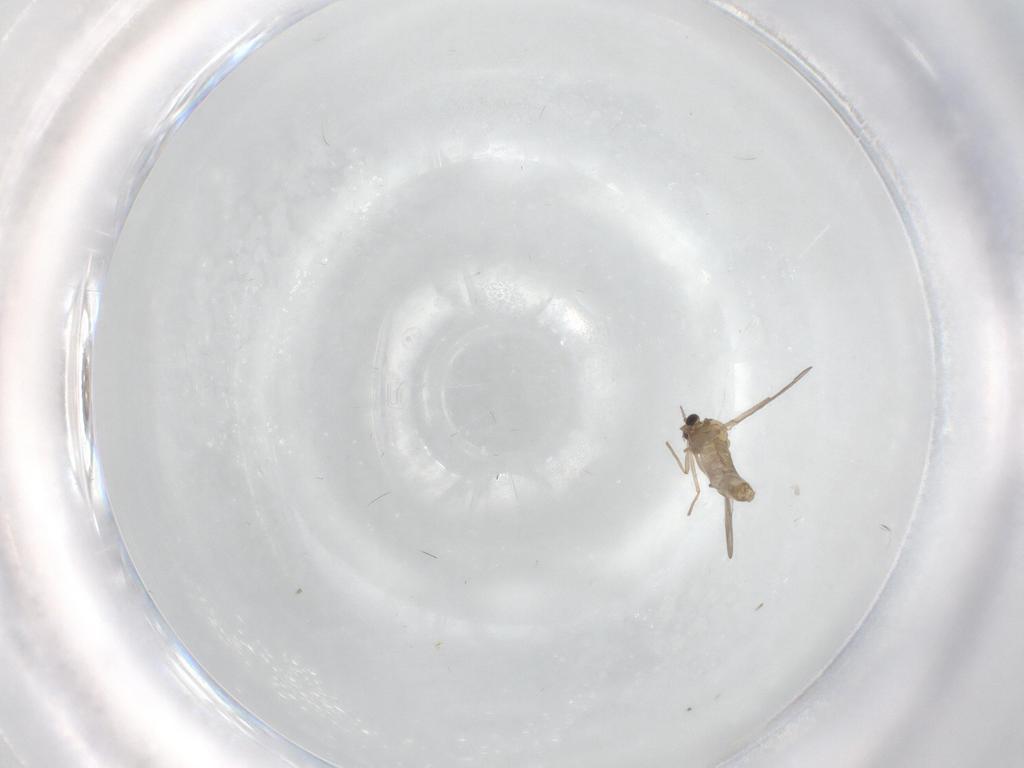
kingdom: Animalia
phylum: Arthropoda
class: Insecta
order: Diptera
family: Chironomidae
